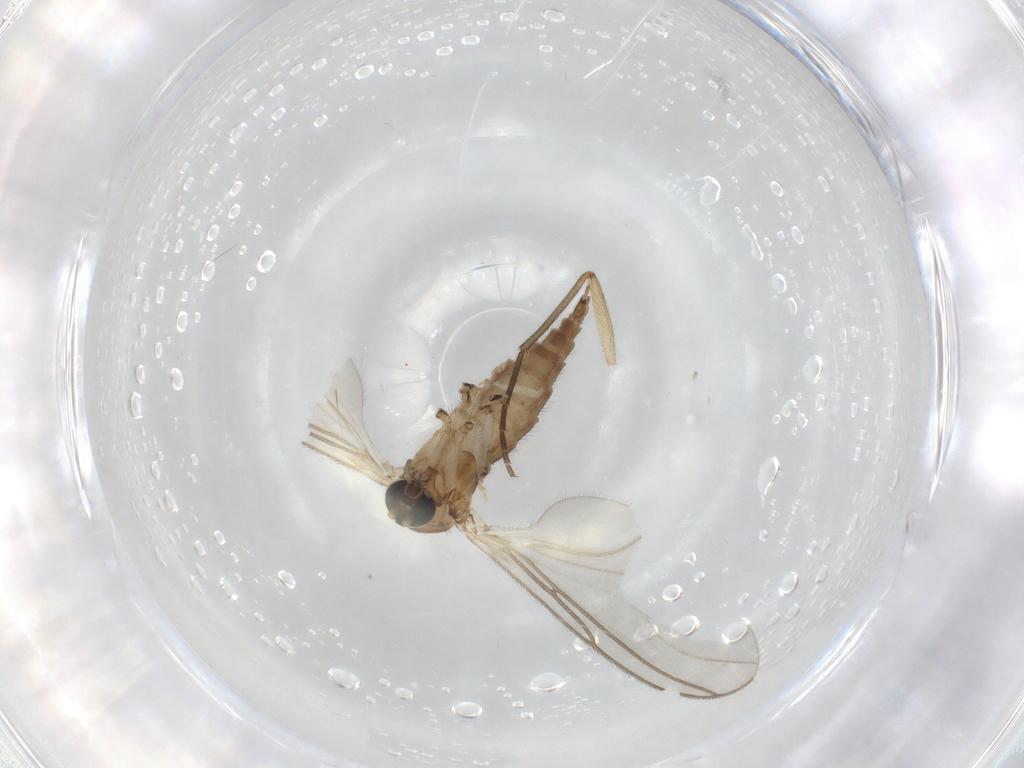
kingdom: Animalia
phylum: Arthropoda
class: Insecta
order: Diptera
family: Sciaridae
